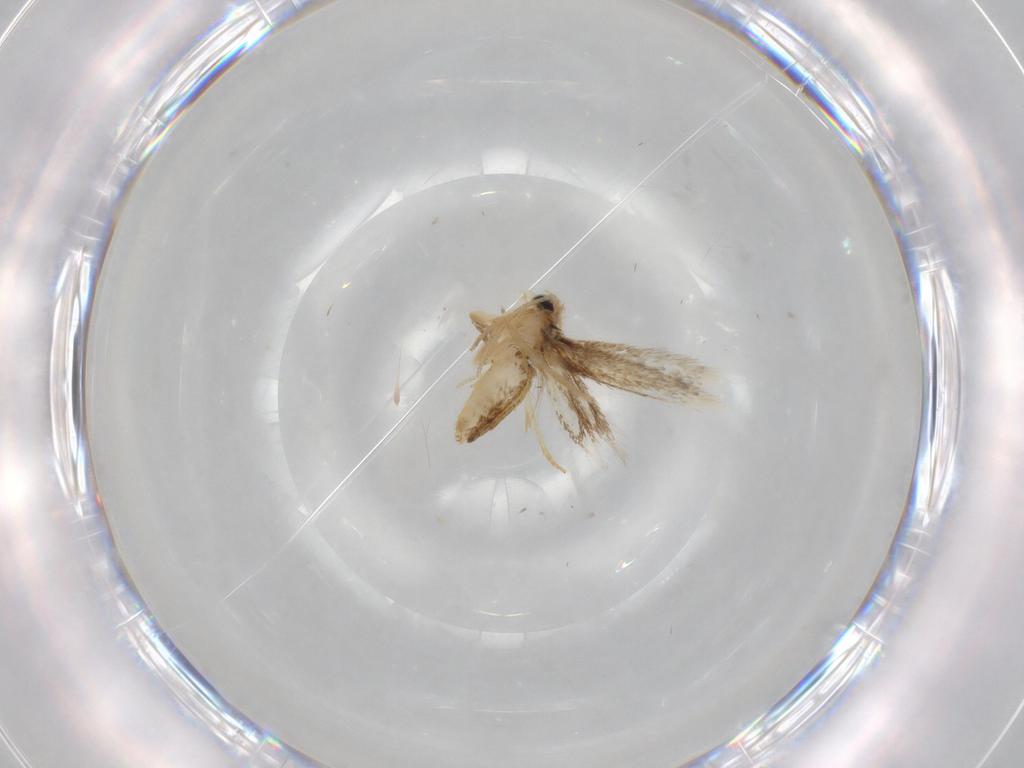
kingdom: Animalia
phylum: Arthropoda
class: Insecta
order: Lepidoptera
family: Nepticulidae
